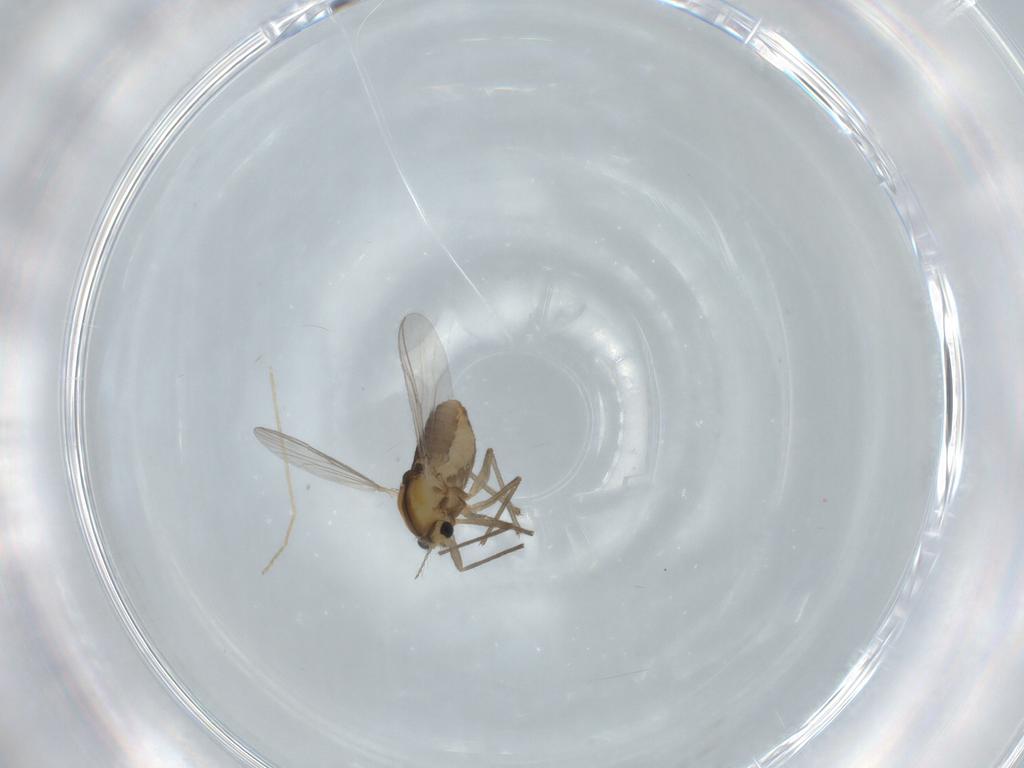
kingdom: Animalia
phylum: Arthropoda
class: Insecta
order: Diptera
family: Chironomidae
